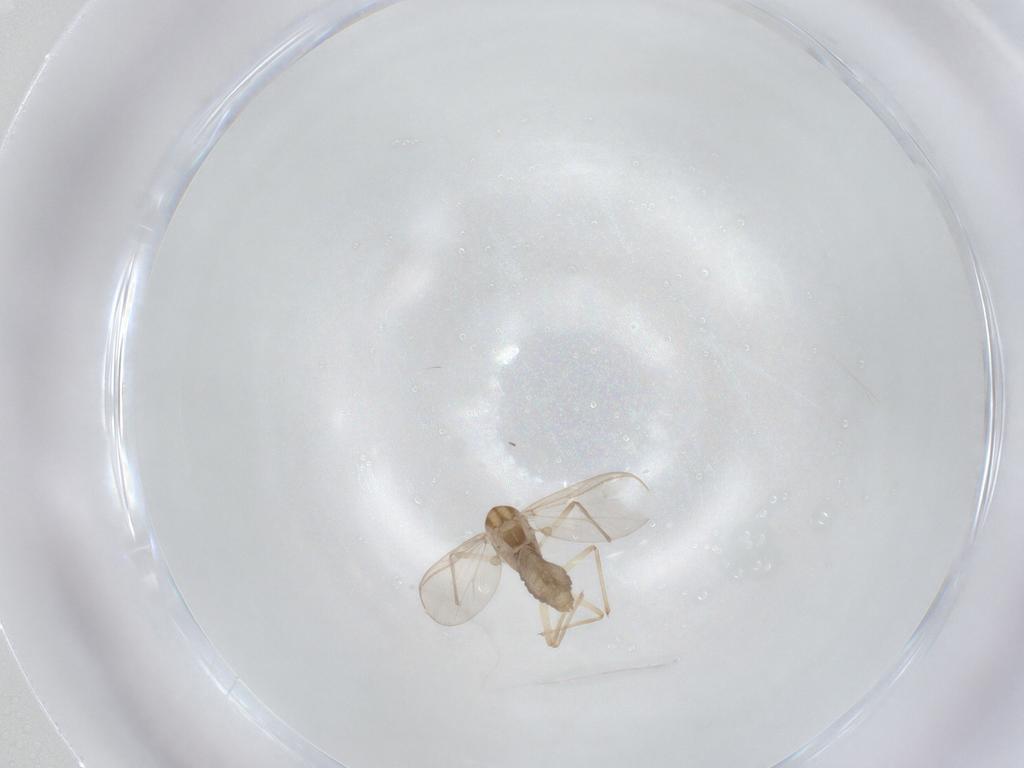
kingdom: Animalia
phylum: Arthropoda
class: Insecta
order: Diptera
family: Chironomidae
